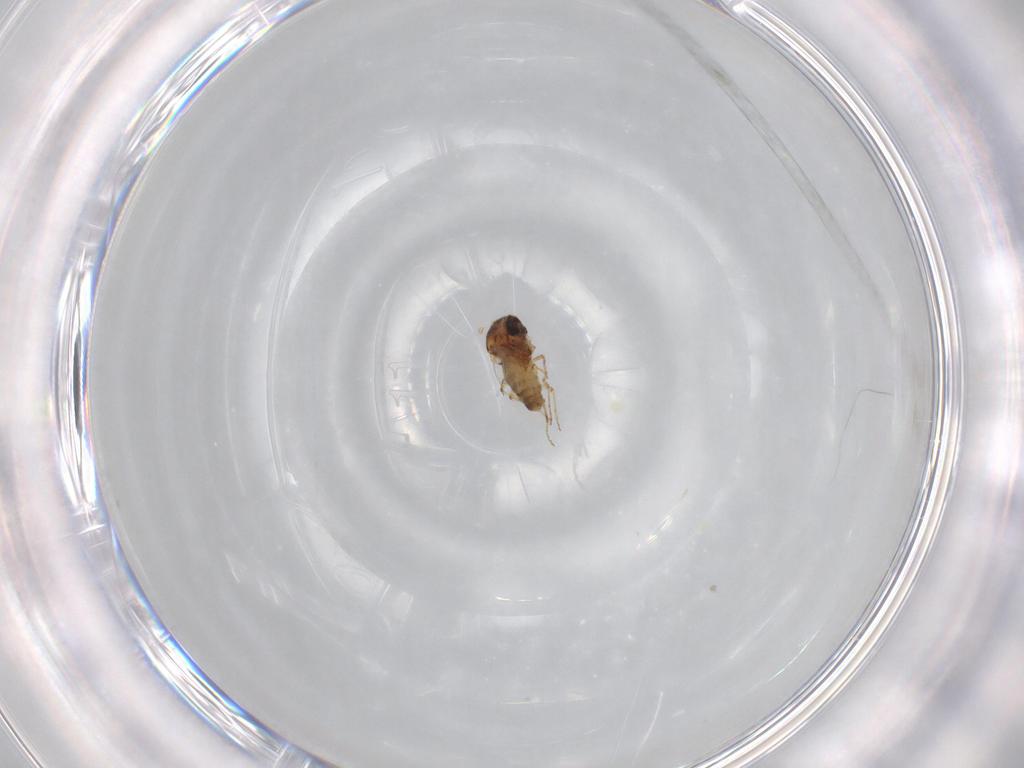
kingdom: Animalia
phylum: Arthropoda
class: Insecta
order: Diptera
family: Ceratopogonidae
